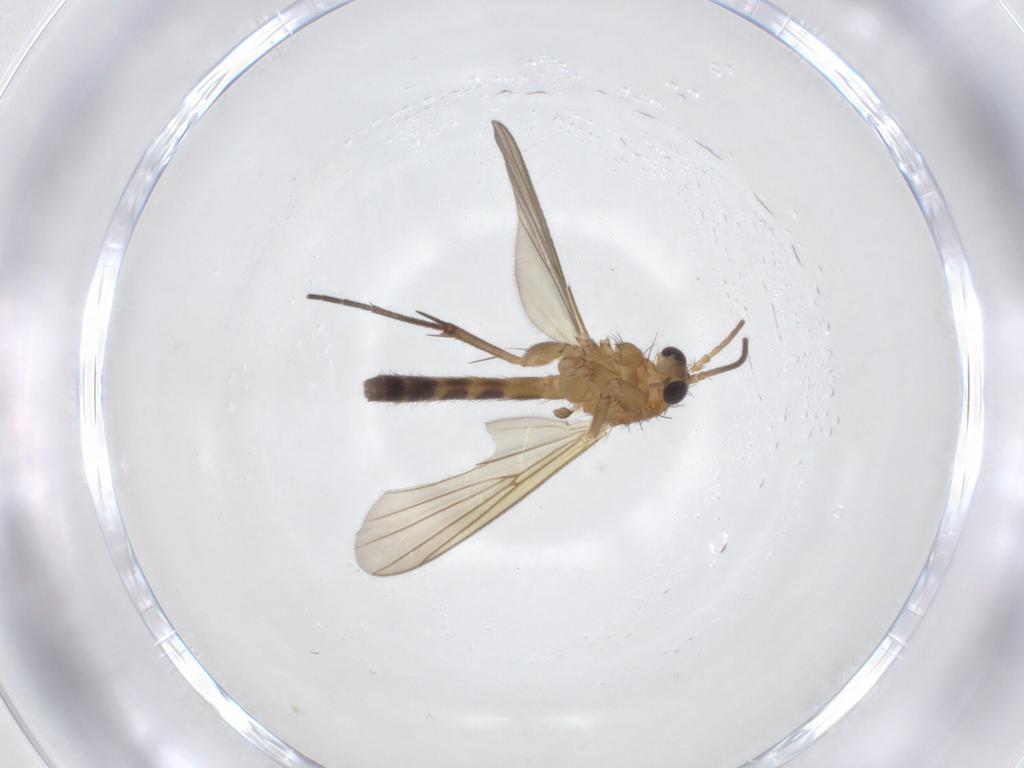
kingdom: Animalia
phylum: Arthropoda
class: Insecta
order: Diptera
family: Mycetophilidae
